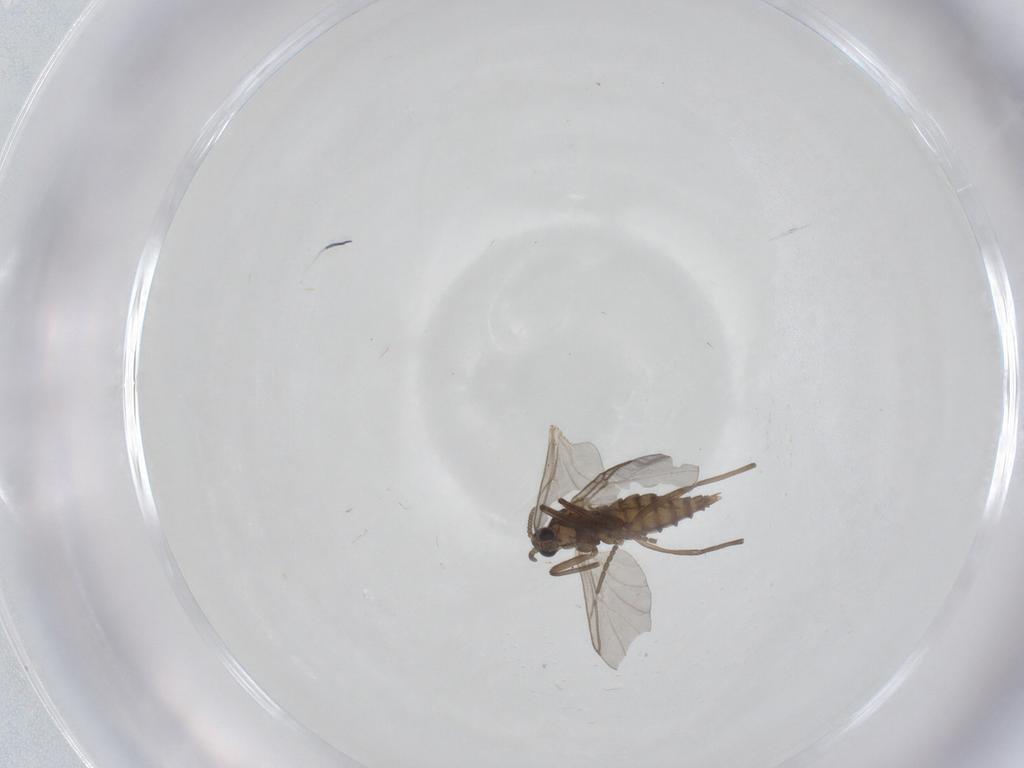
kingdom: Animalia
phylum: Arthropoda
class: Insecta
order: Diptera
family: Cecidomyiidae
